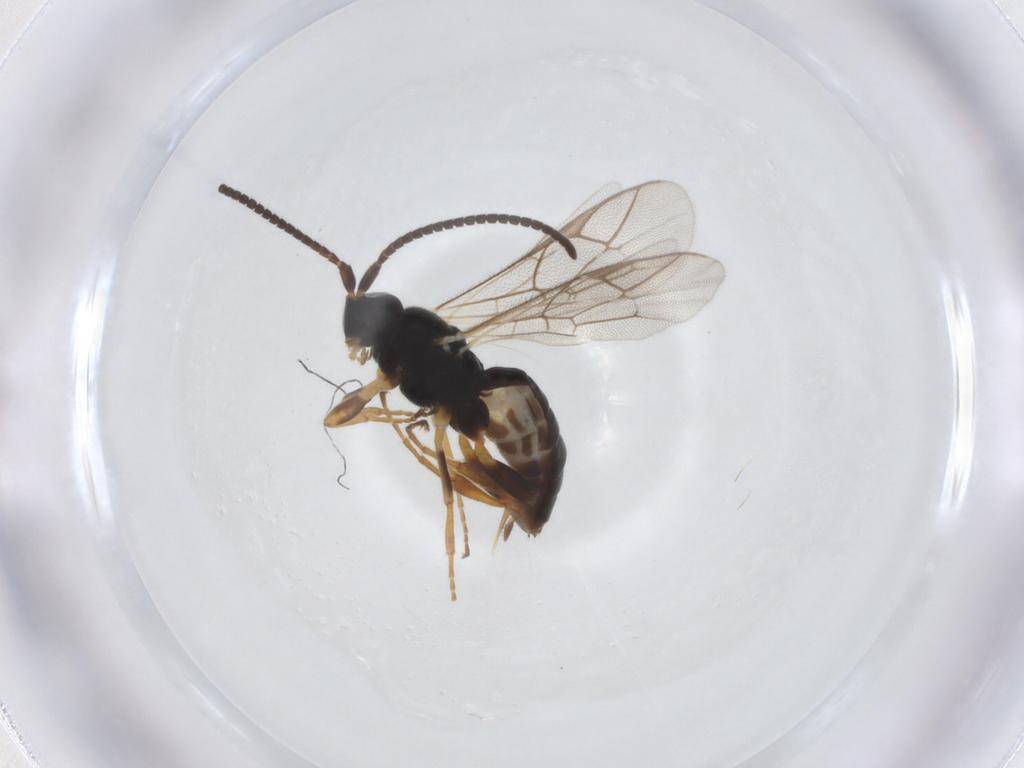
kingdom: Animalia
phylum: Arthropoda
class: Insecta
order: Hymenoptera
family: Ichneumonidae
